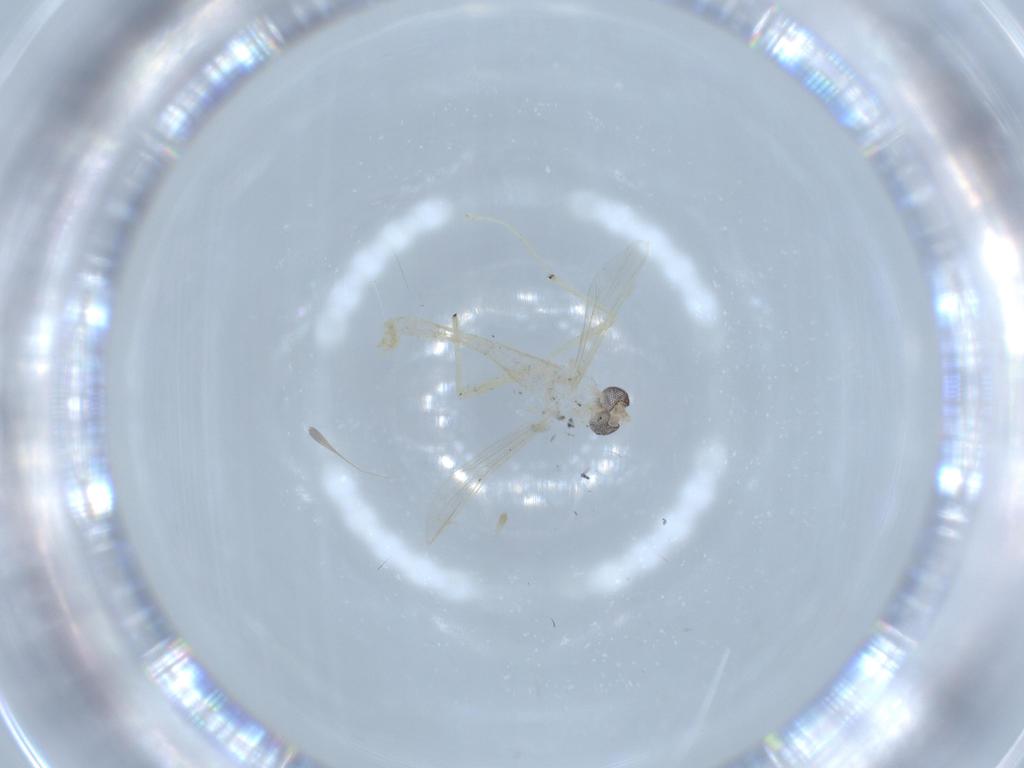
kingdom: Animalia
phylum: Arthropoda
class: Insecta
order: Diptera
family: Chironomidae
